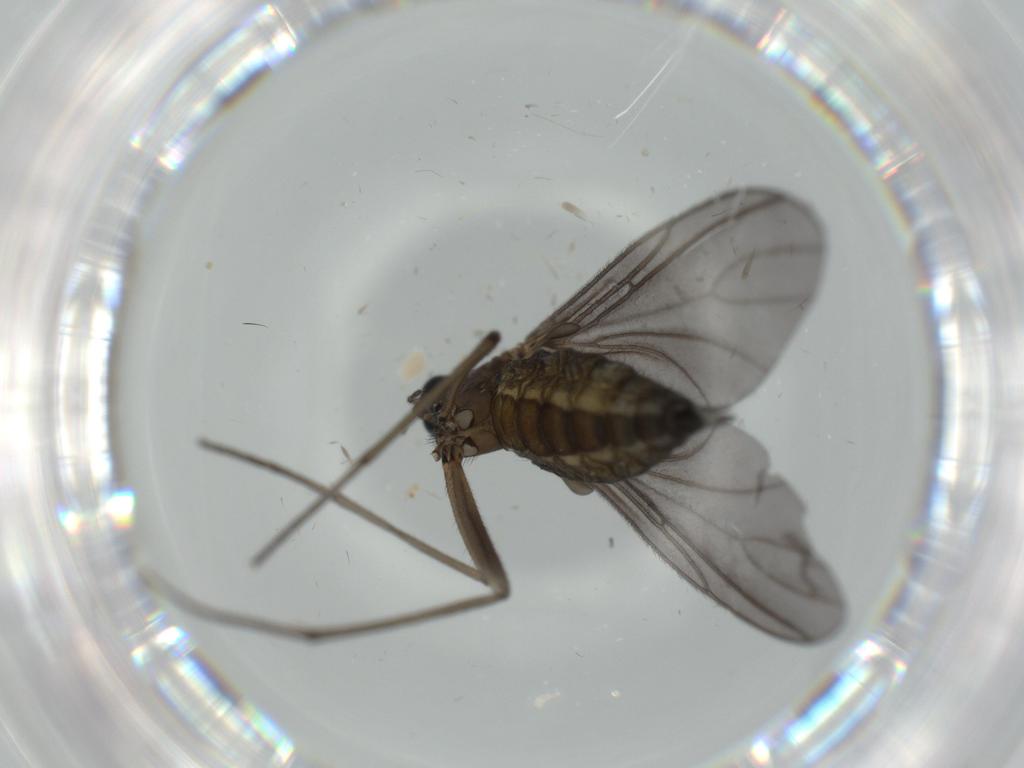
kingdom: Animalia
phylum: Arthropoda
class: Insecta
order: Diptera
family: Sciaridae
